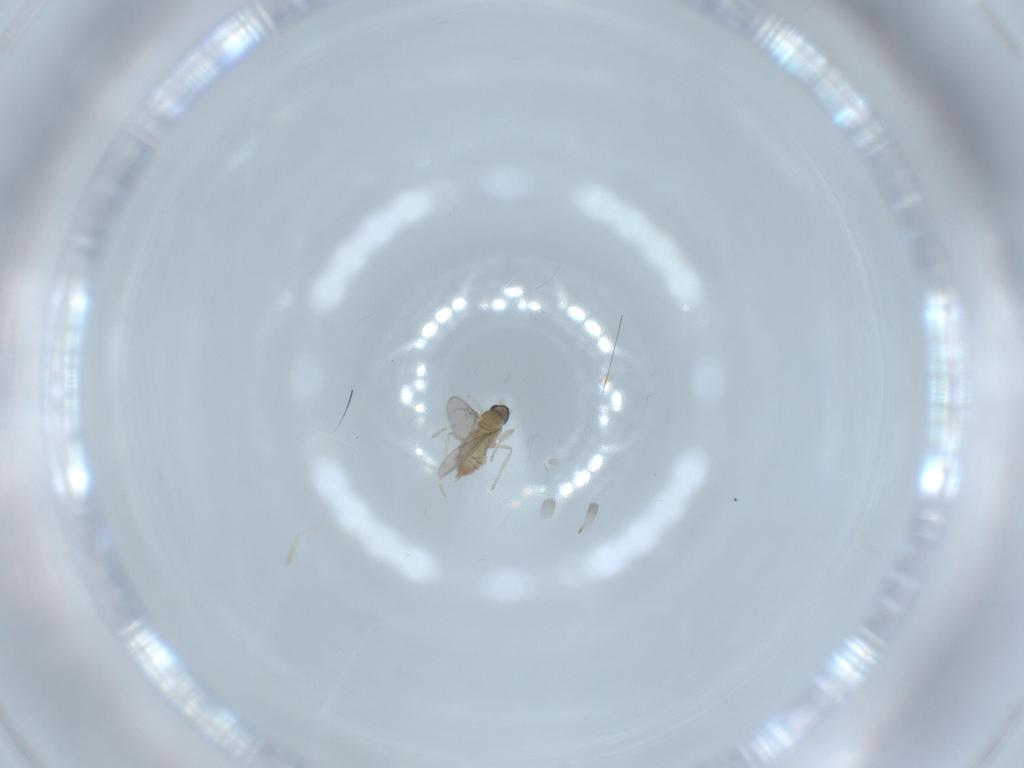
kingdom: Animalia
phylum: Arthropoda
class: Insecta
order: Diptera
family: Cecidomyiidae
